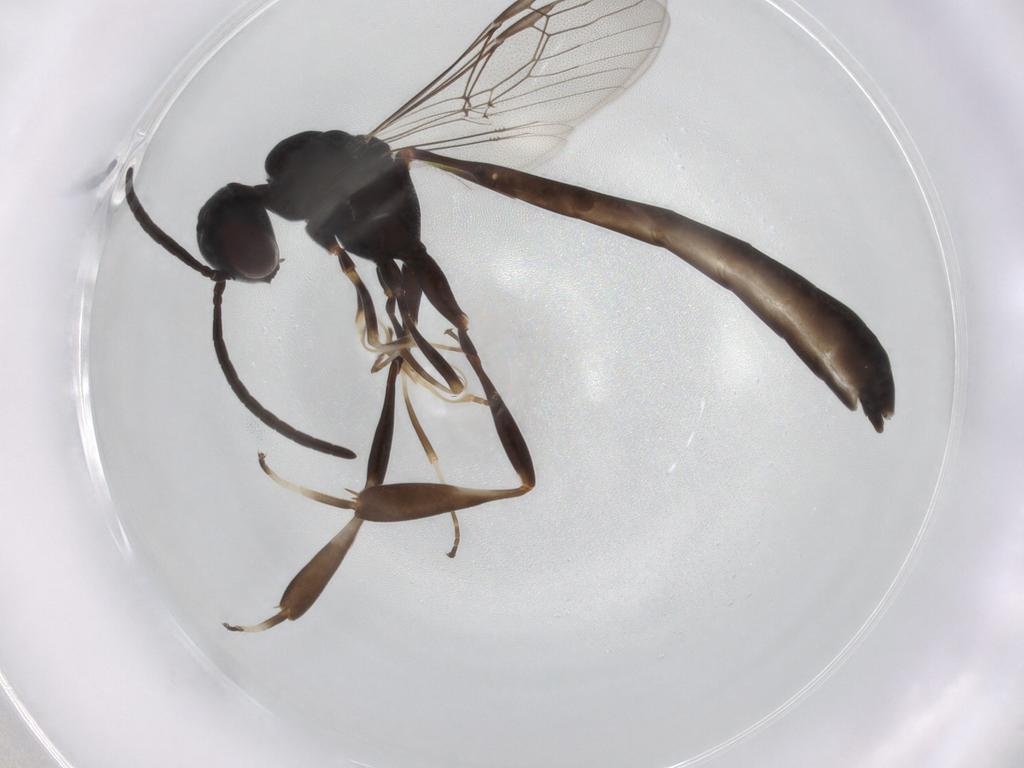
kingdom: Animalia
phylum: Arthropoda
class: Insecta
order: Hymenoptera
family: Gasteruptiidae
